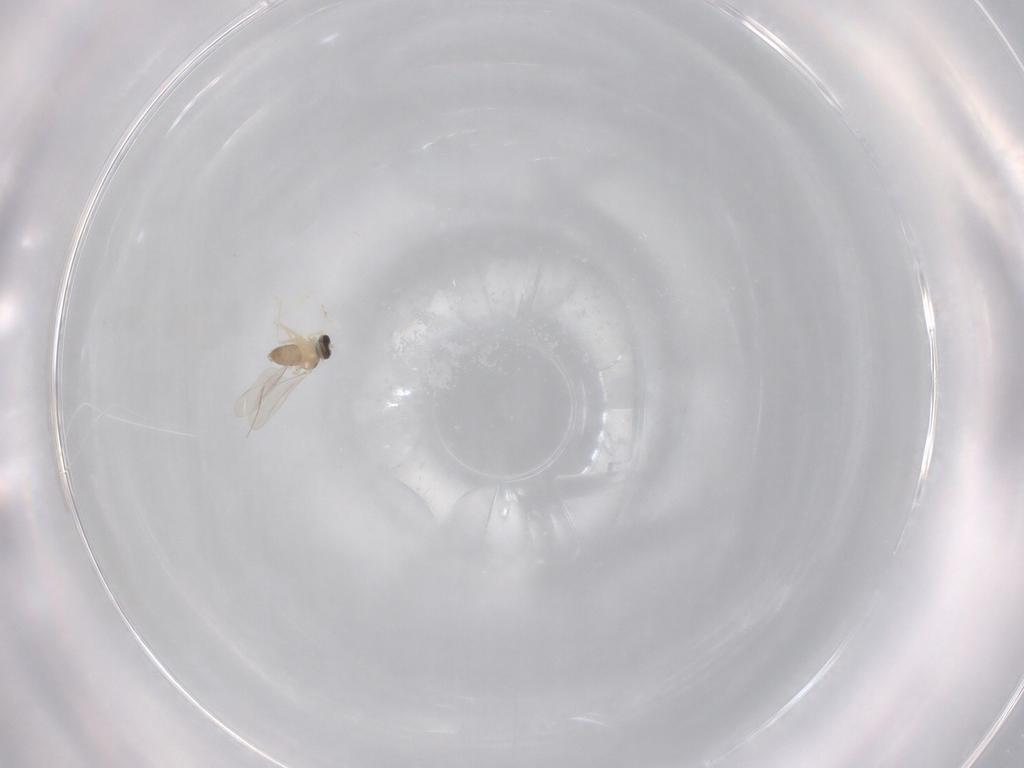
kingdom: Animalia
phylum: Arthropoda
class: Insecta
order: Diptera
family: Cecidomyiidae
